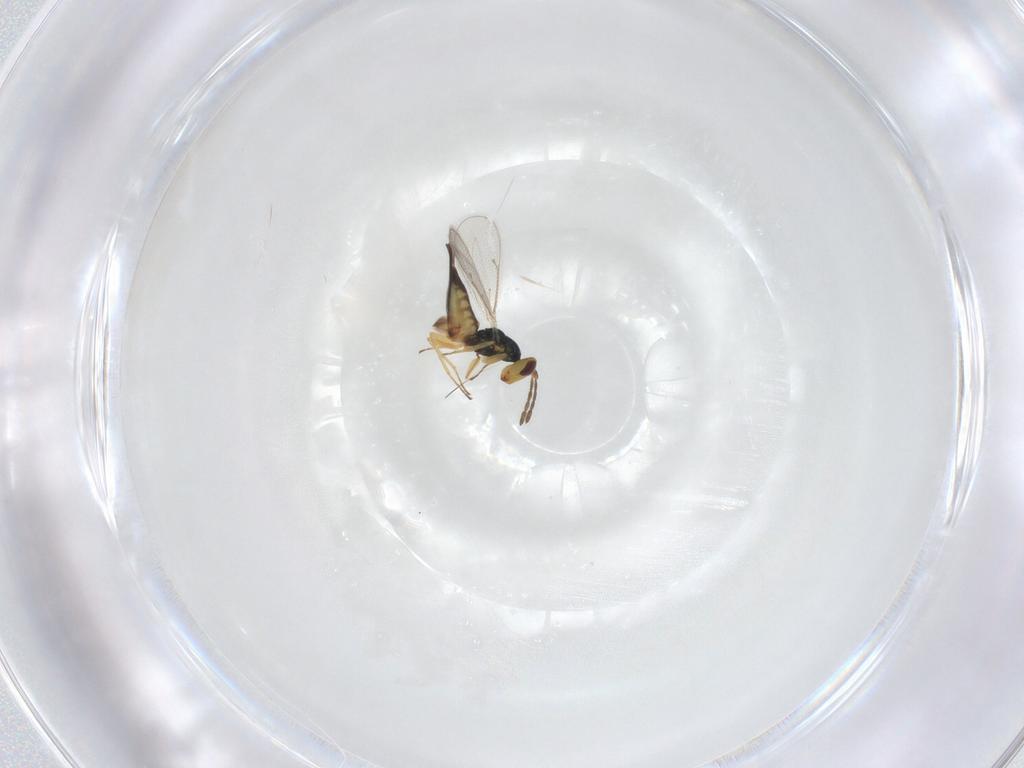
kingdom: Animalia
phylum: Arthropoda
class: Insecta
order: Hymenoptera
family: Eulophidae
